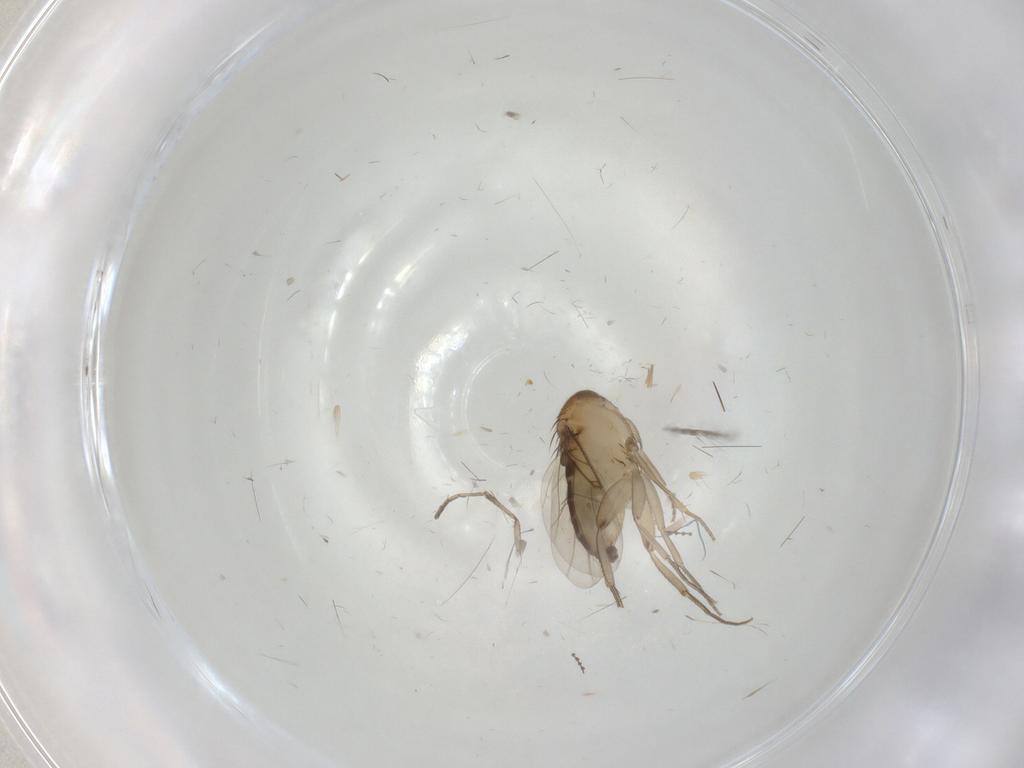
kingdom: Animalia
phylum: Arthropoda
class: Insecta
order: Diptera
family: Phoridae
